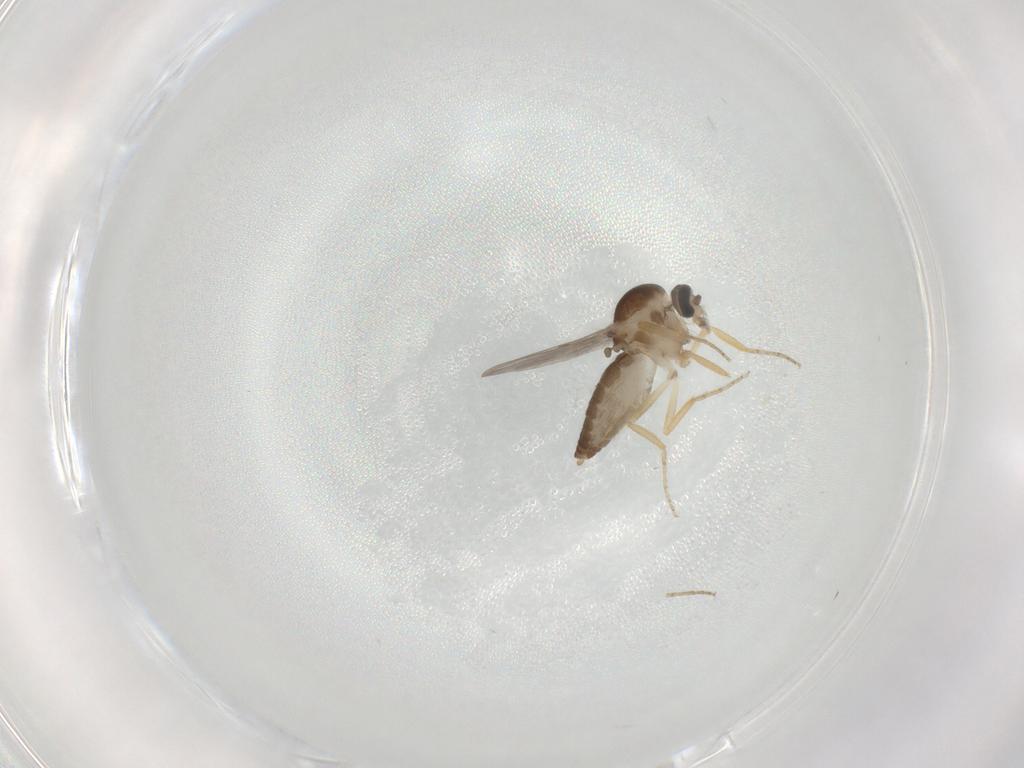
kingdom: Animalia
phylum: Arthropoda
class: Insecta
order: Diptera
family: Ceratopogonidae
